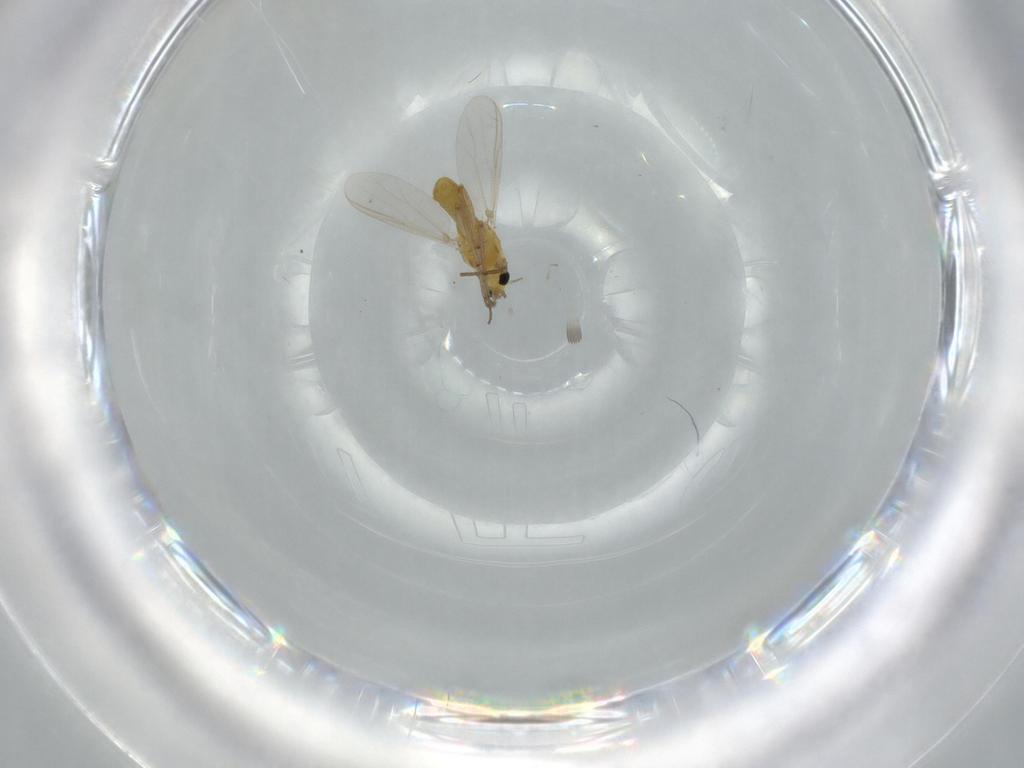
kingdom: Animalia
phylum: Arthropoda
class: Insecta
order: Diptera
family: Chironomidae
